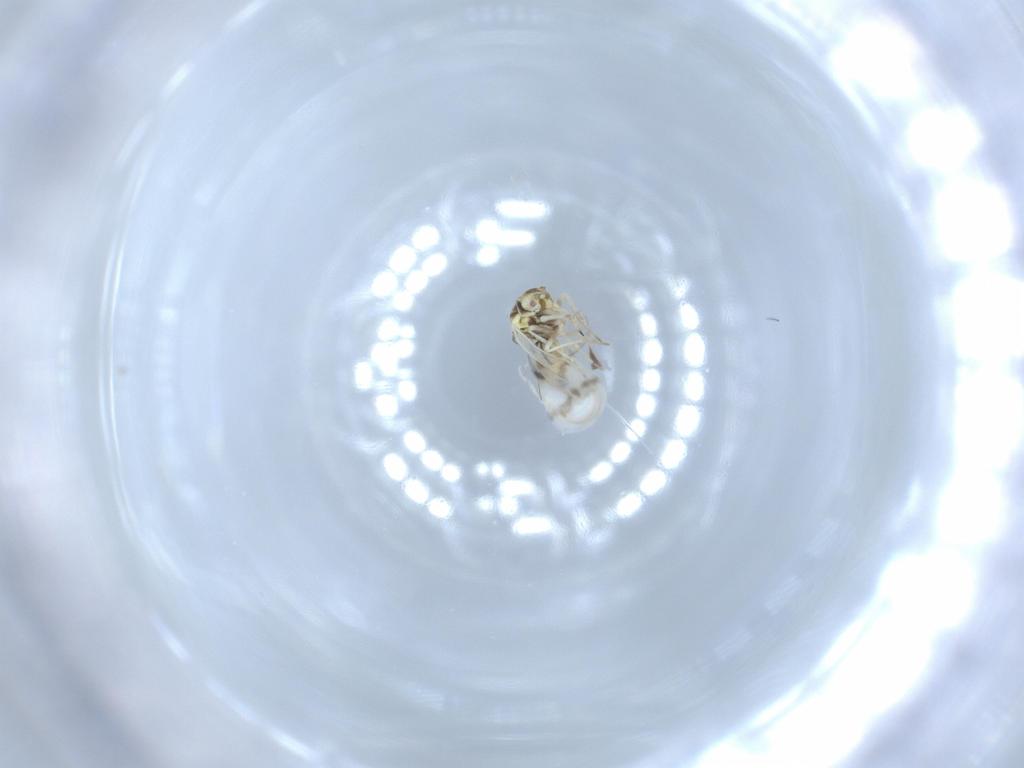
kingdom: Animalia
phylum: Arthropoda
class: Insecta
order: Hemiptera
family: Aleyrodidae
